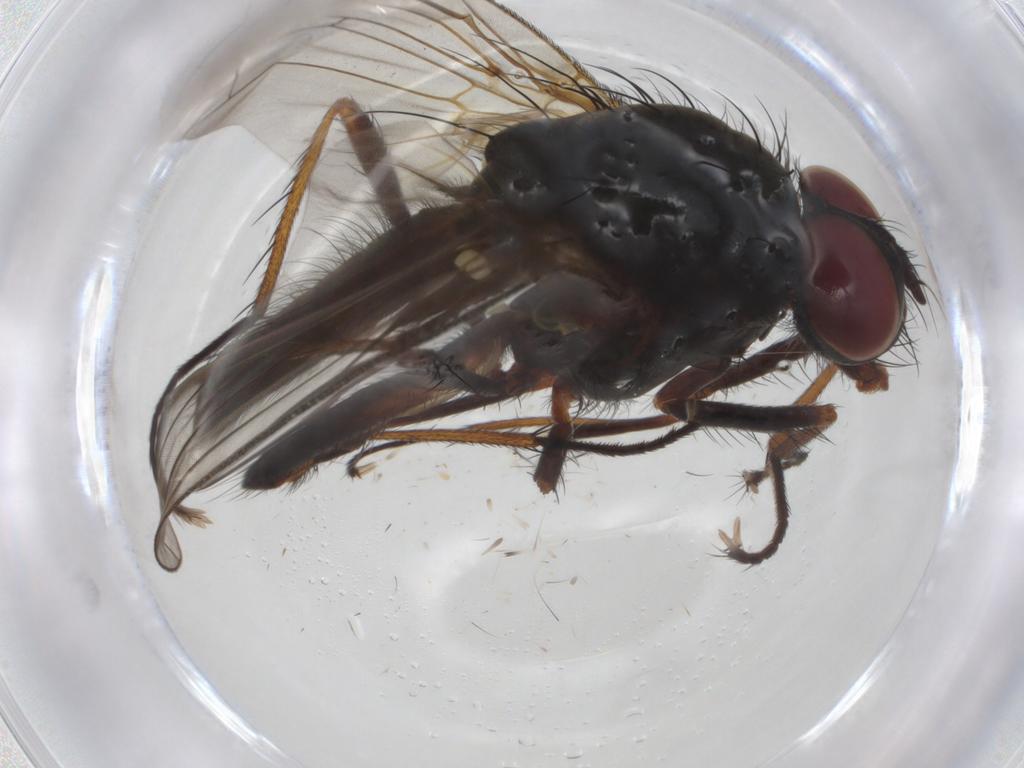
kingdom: Animalia
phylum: Arthropoda
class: Insecta
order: Diptera
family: Anthomyiidae
